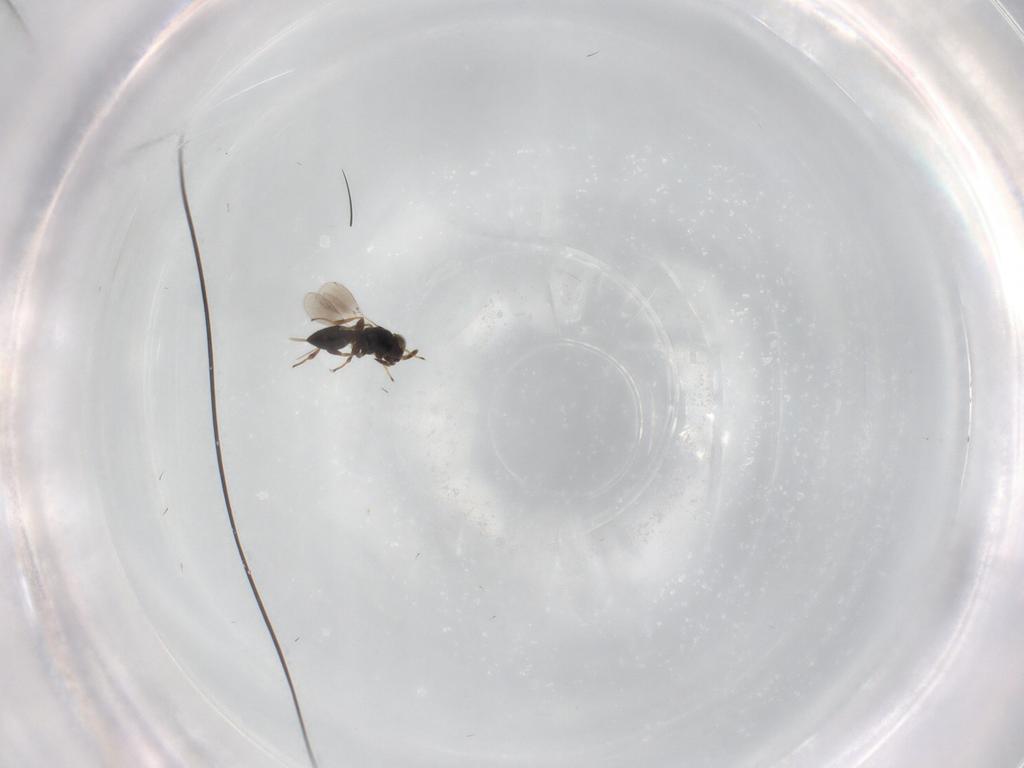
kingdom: Animalia
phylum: Arthropoda
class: Insecta
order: Hymenoptera
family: Platygastridae
